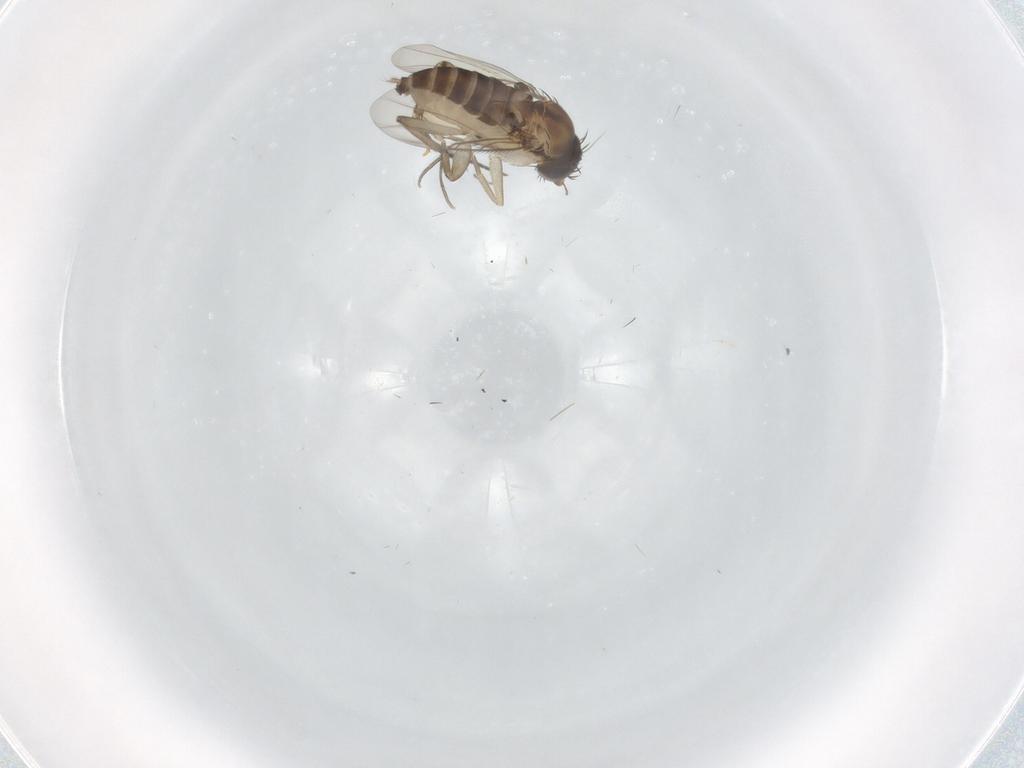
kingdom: Animalia
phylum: Arthropoda
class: Insecta
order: Diptera
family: Phoridae
